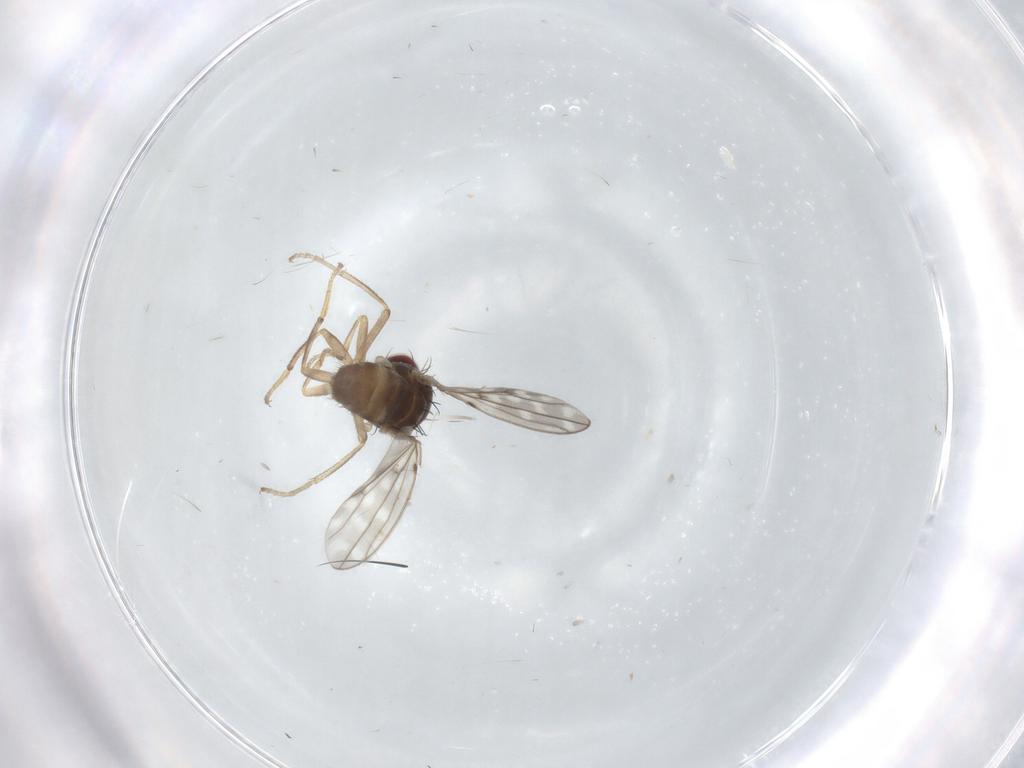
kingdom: Animalia
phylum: Arthropoda
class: Insecta
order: Diptera
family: Ephydridae
